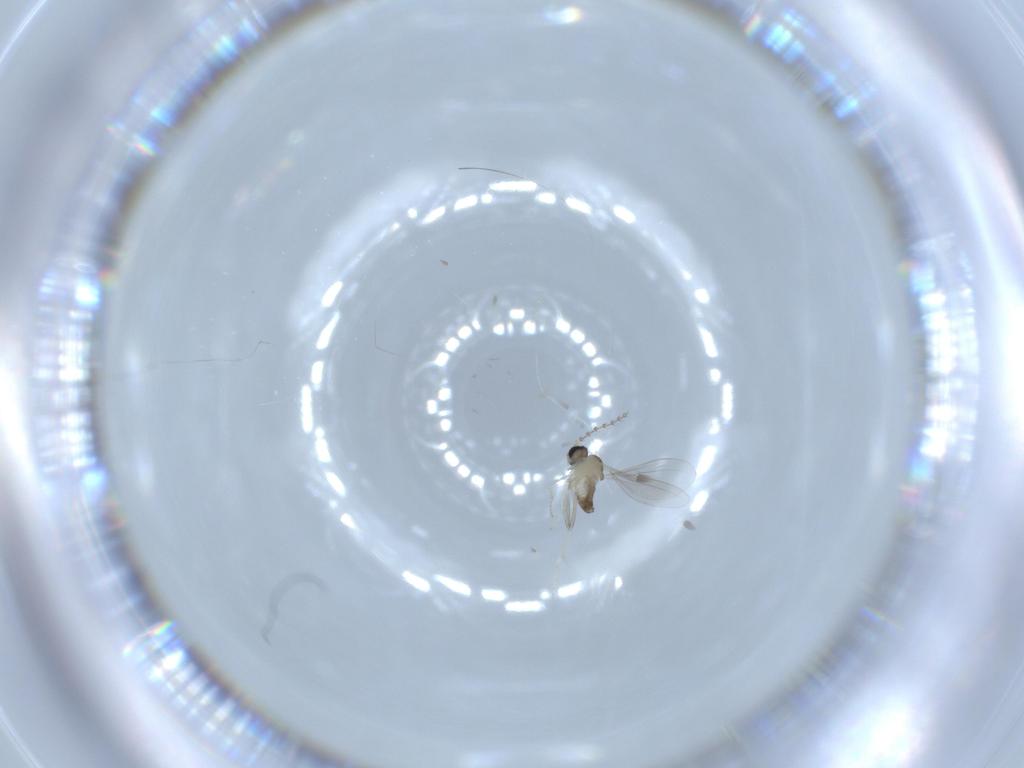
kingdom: Animalia
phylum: Arthropoda
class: Insecta
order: Diptera
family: Cecidomyiidae
